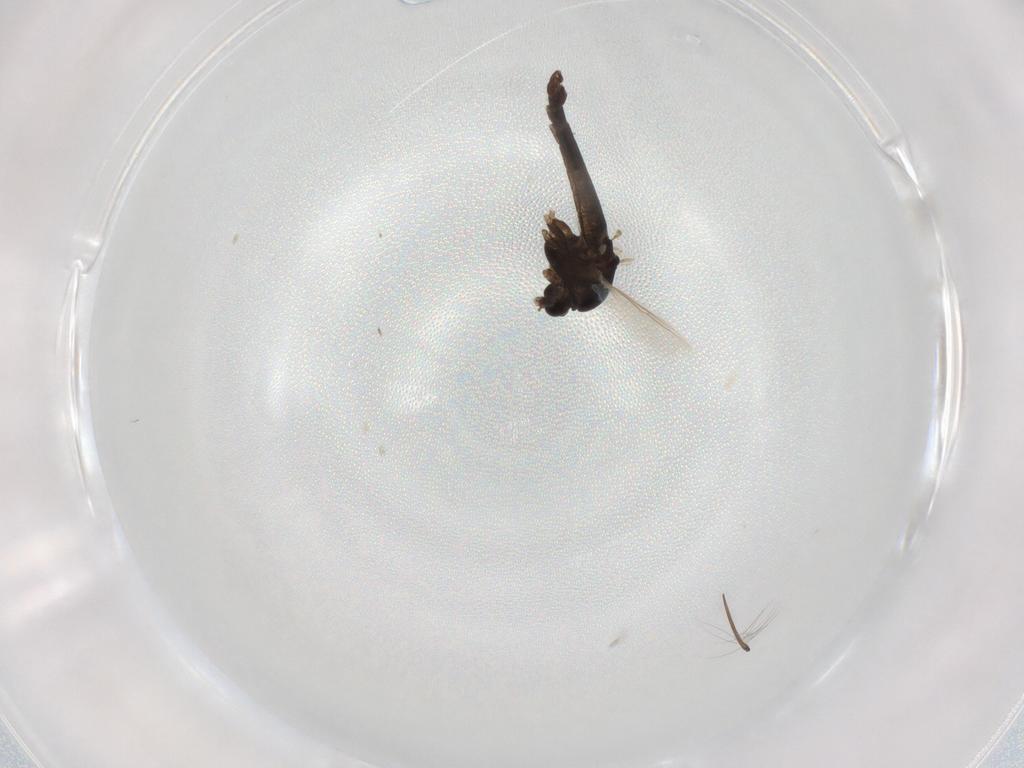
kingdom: Animalia
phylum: Arthropoda
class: Insecta
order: Diptera
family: Chironomidae
